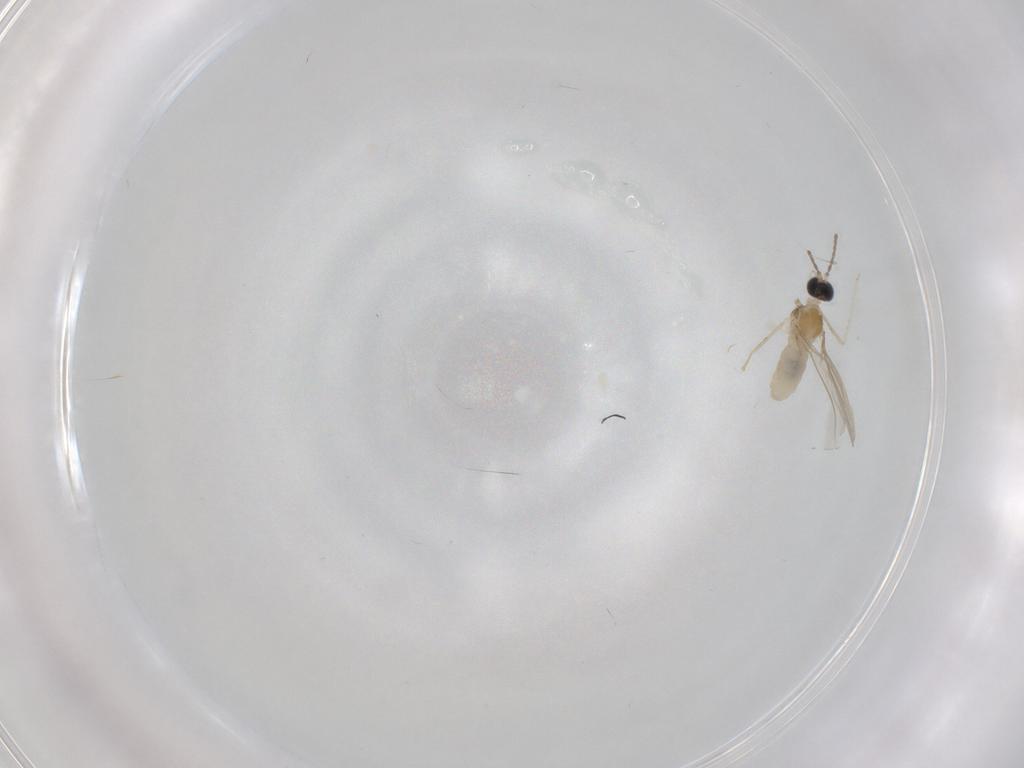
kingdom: Animalia
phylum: Arthropoda
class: Insecta
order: Diptera
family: Cecidomyiidae
